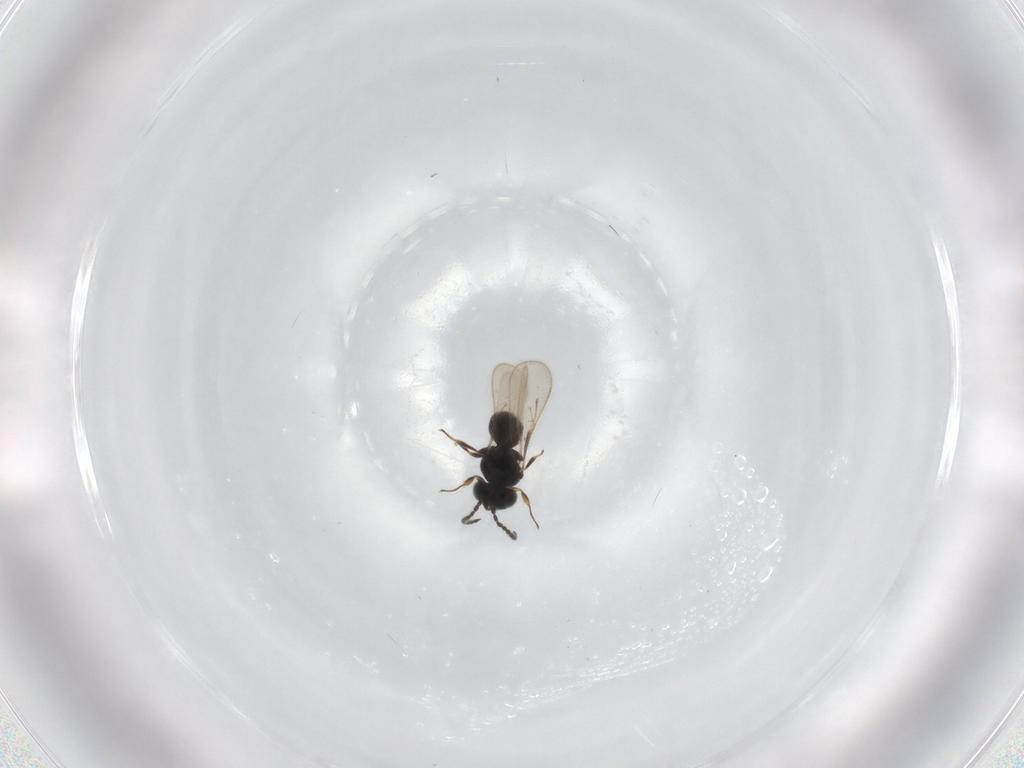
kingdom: Animalia
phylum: Arthropoda
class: Insecta
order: Hymenoptera
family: Scelionidae
